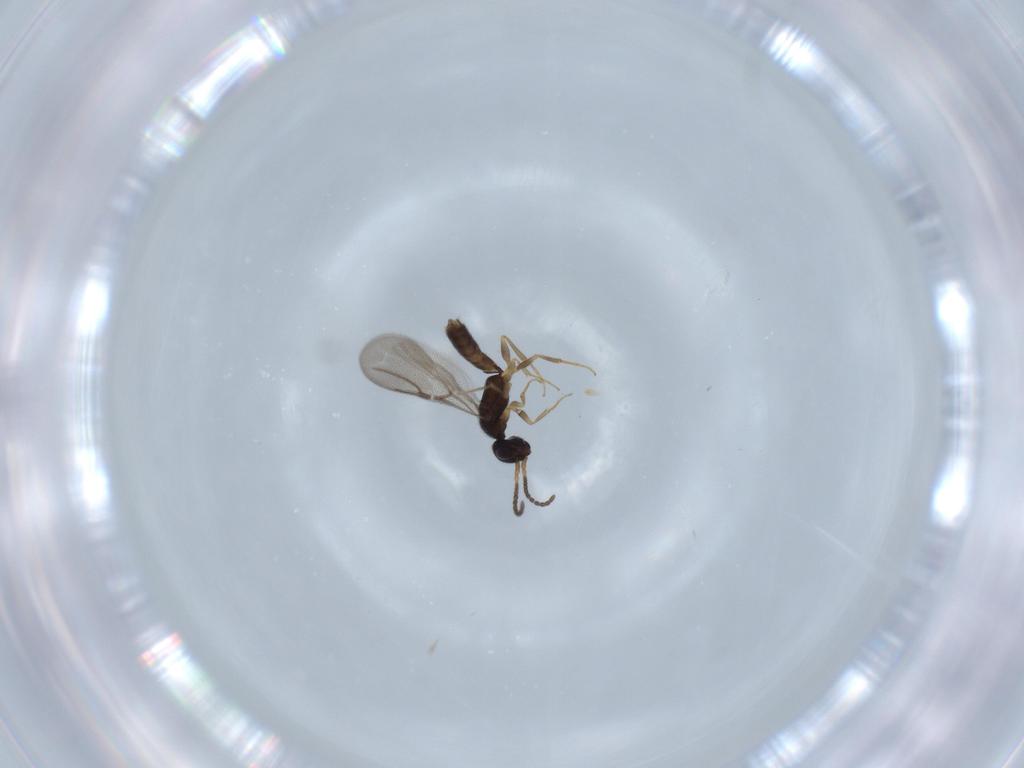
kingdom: Animalia
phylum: Arthropoda
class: Insecta
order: Hymenoptera
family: Bethylidae
